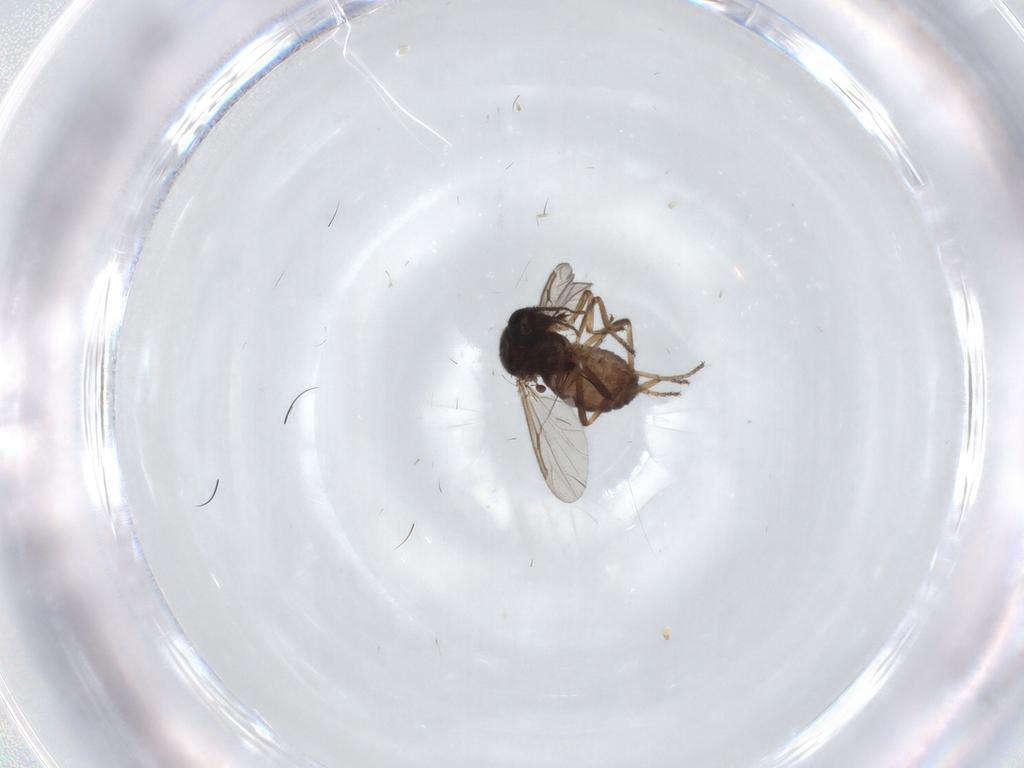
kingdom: Animalia
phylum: Arthropoda
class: Insecta
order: Diptera
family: Ceratopogonidae
